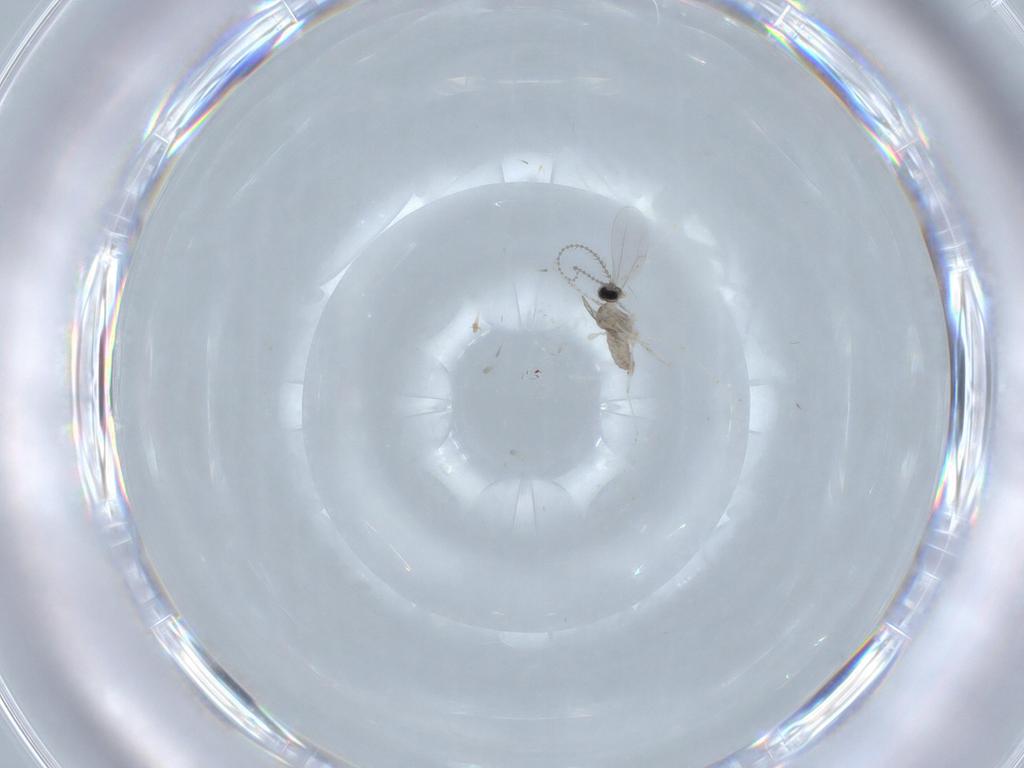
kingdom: Animalia
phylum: Arthropoda
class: Insecta
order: Diptera
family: Cecidomyiidae
